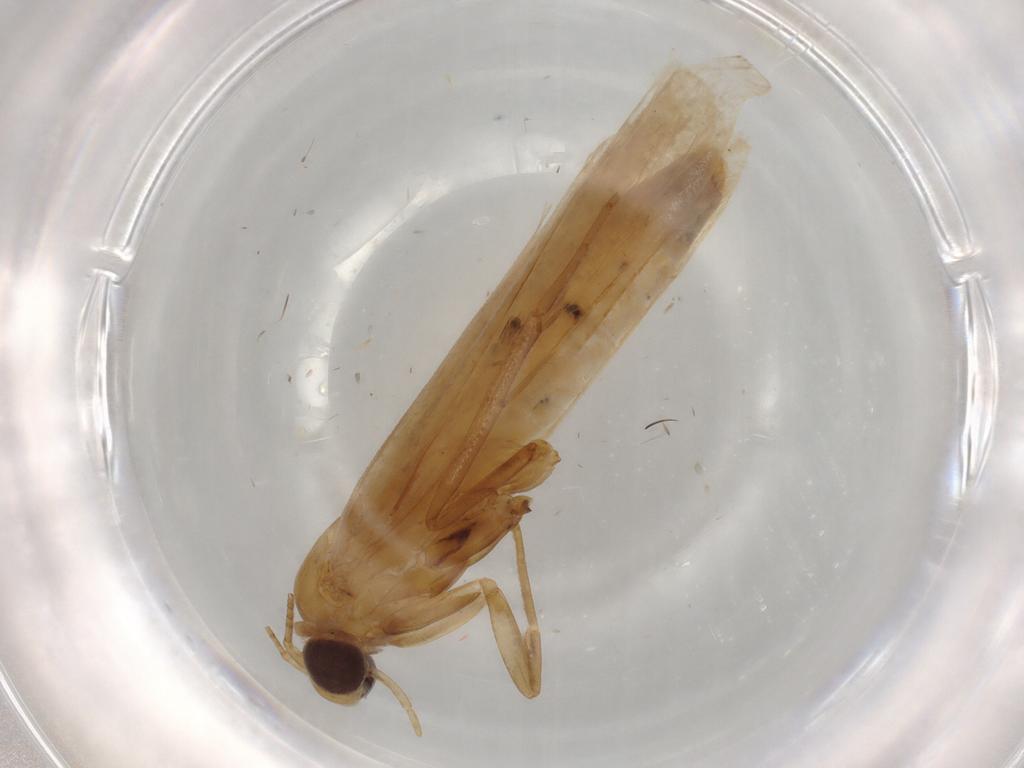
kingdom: Animalia
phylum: Arthropoda
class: Insecta
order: Lepidoptera
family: Pyralidae
